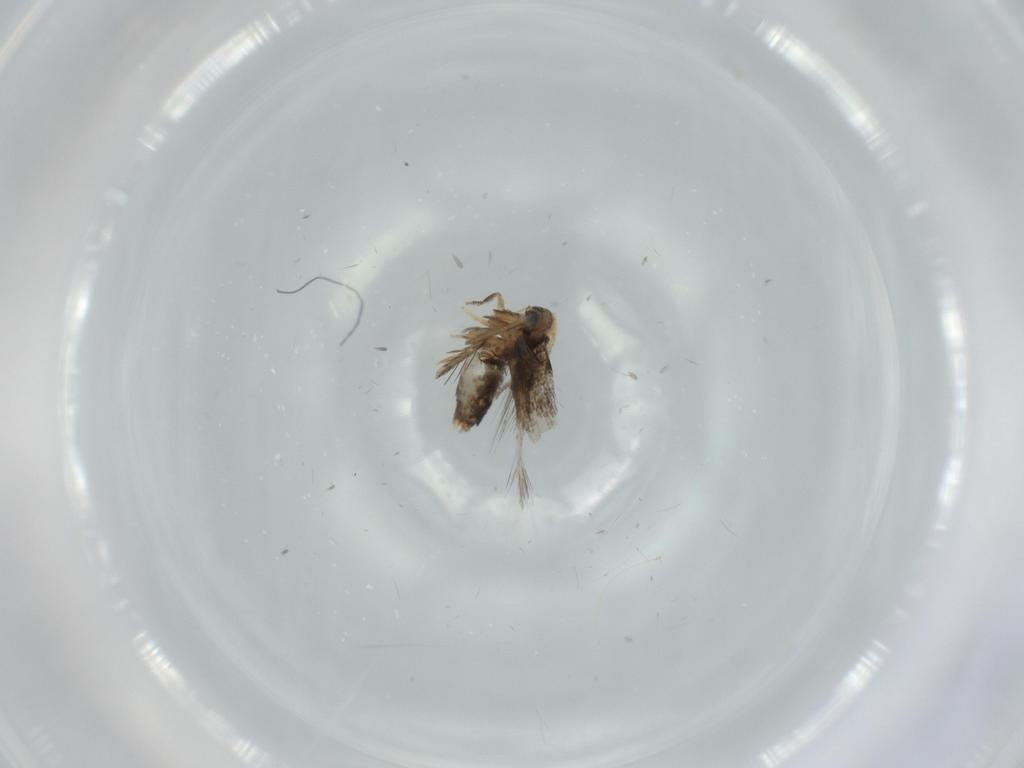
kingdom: Animalia
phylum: Arthropoda
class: Insecta
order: Lepidoptera
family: Nepticulidae
